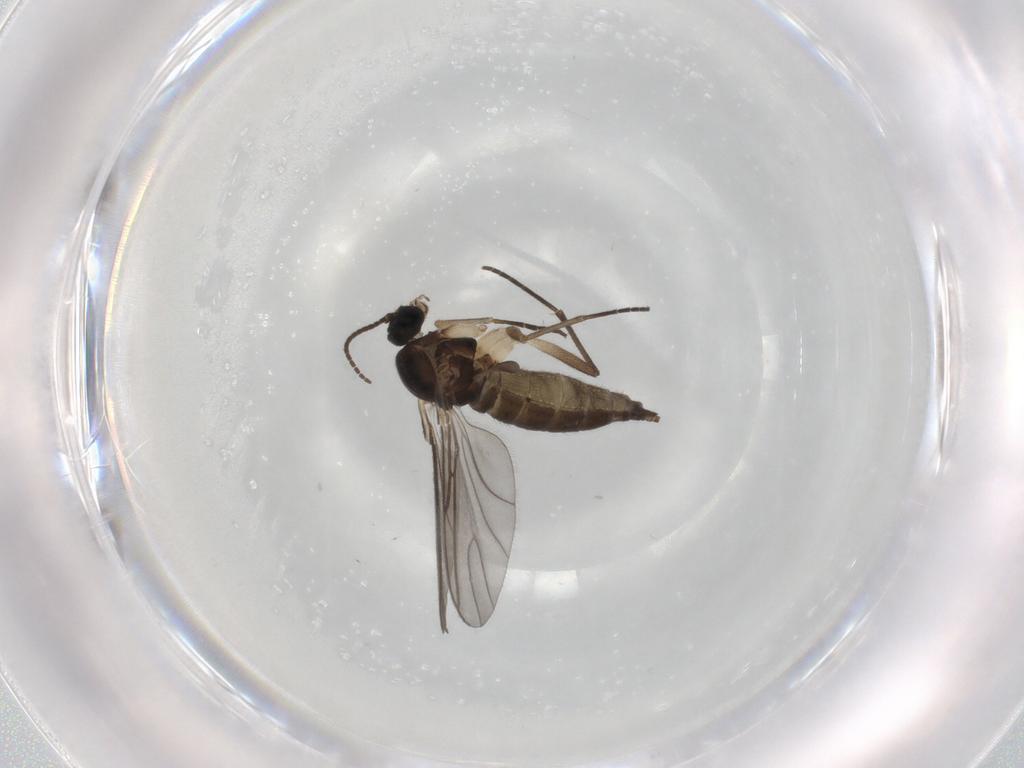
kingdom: Animalia
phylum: Arthropoda
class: Insecta
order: Diptera
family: Sciaridae
